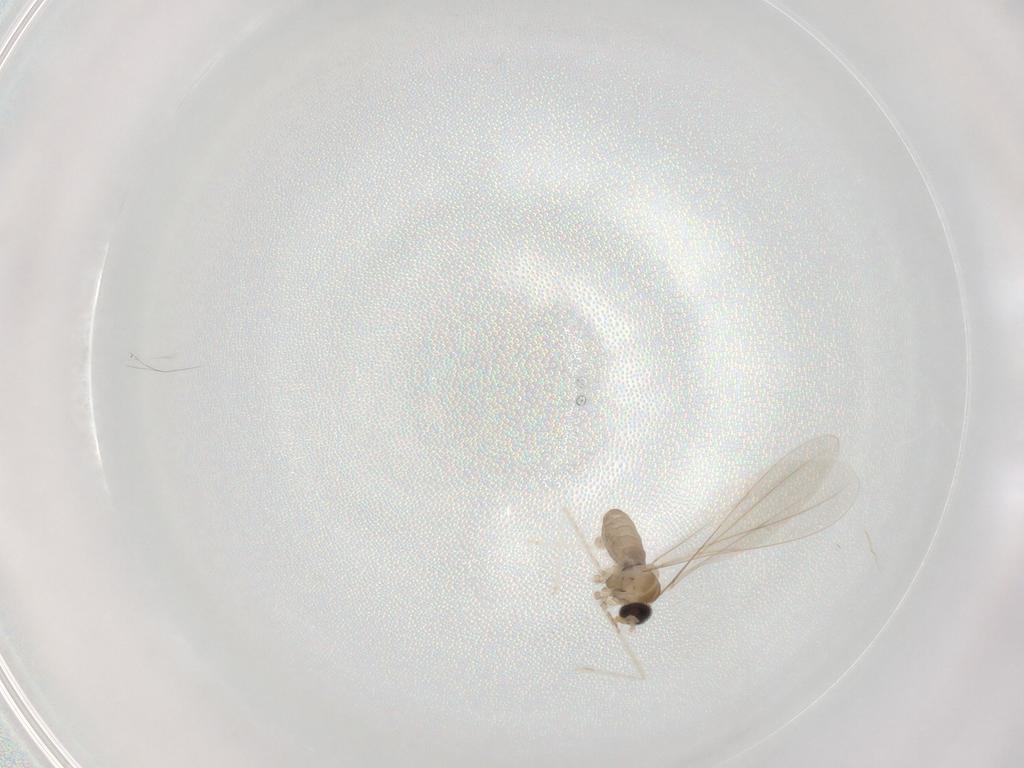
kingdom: Animalia
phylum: Arthropoda
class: Insecta
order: Diptera
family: Cecidomyiidae
